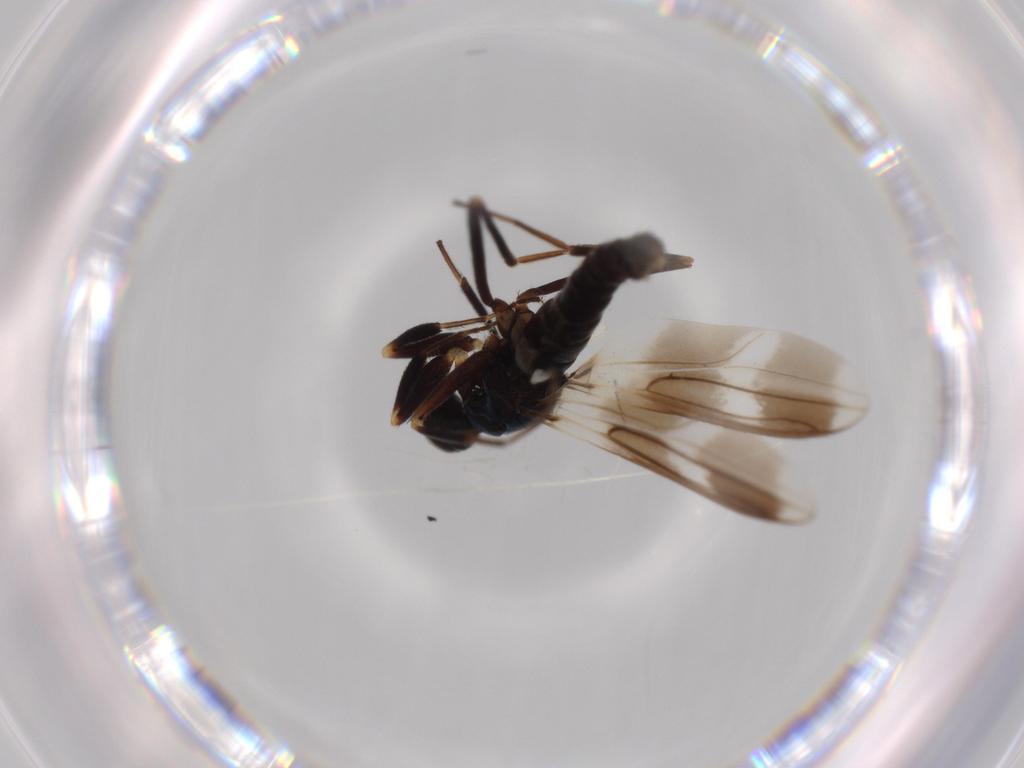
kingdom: Animalia
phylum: Arthropoda
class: Insecta
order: Diptera
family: Hybotidae
